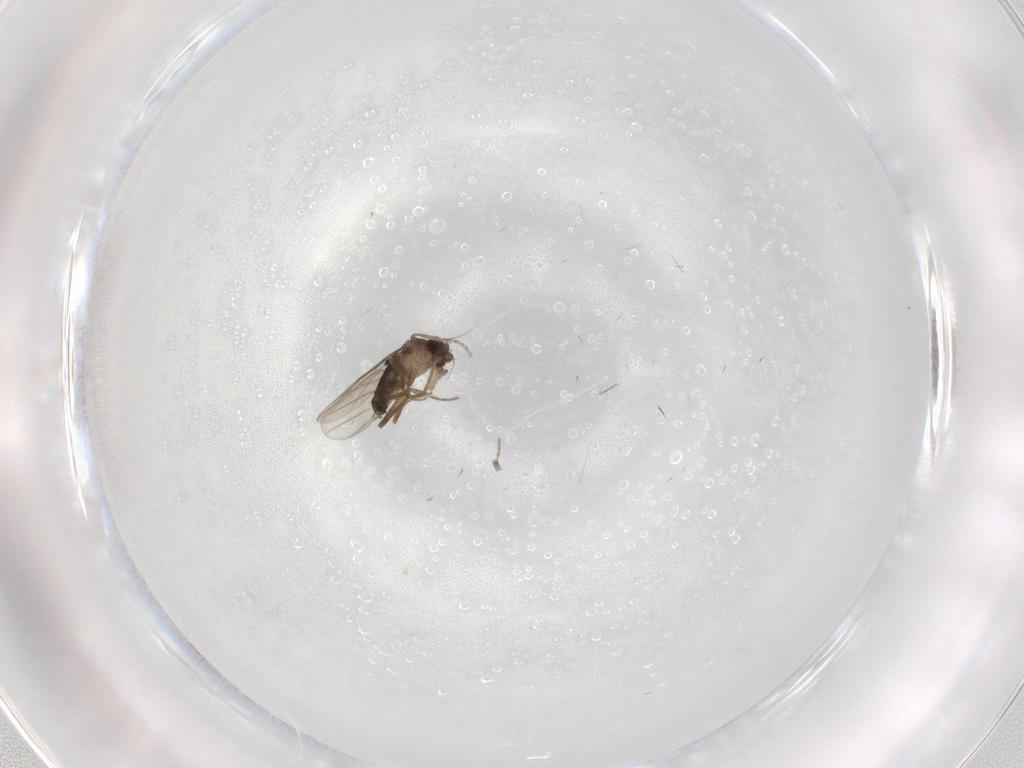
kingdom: Animalia
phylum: Arthropoda
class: Insecta
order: Diptera
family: Phoridae
